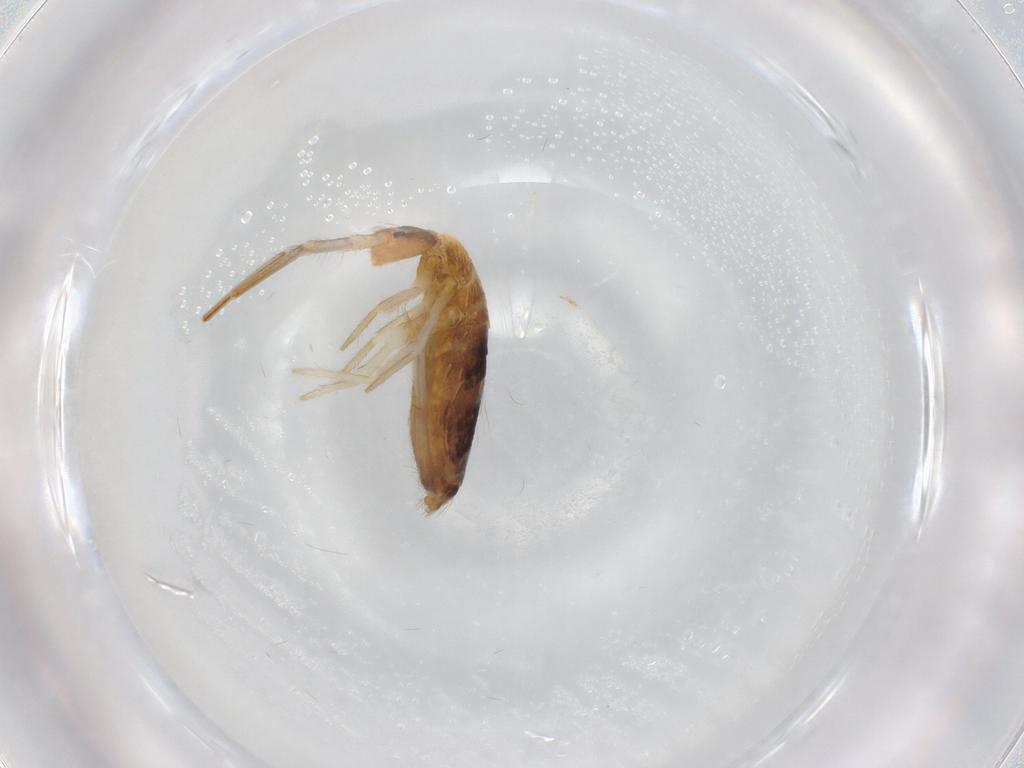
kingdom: Animalia
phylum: Arthropoda
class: Collembola
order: Entomobryomorpha
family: Entomobryidae
